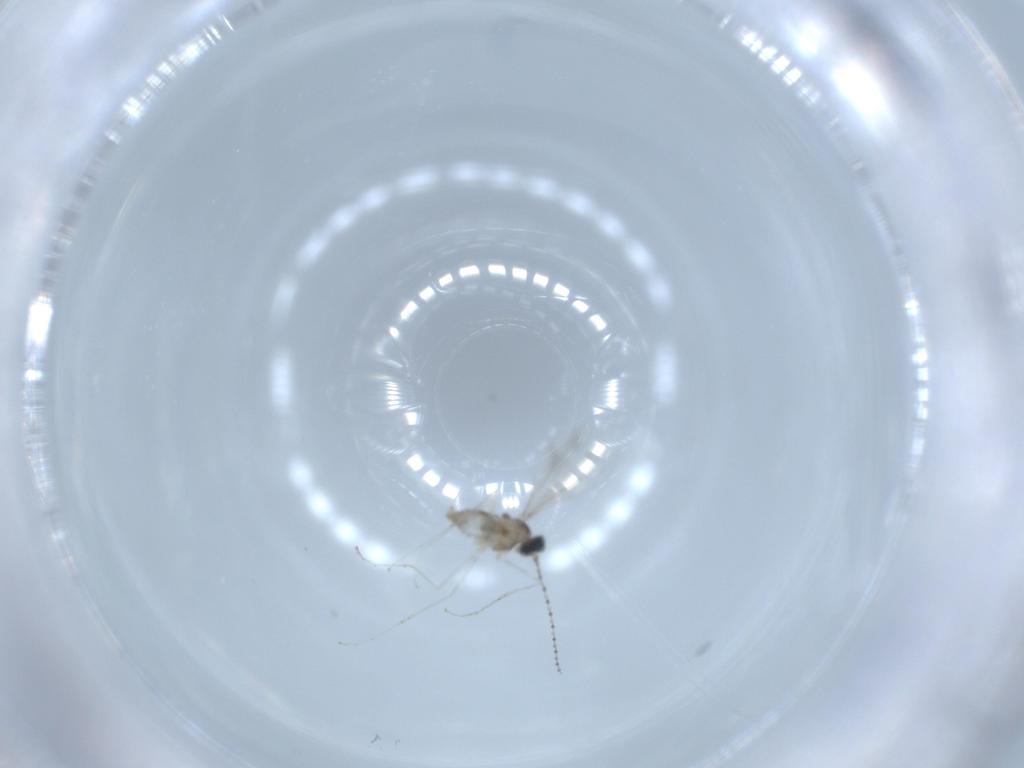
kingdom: Animalia
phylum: Arthropoda
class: Insecta
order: Diptera
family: Cecidomyiidae
